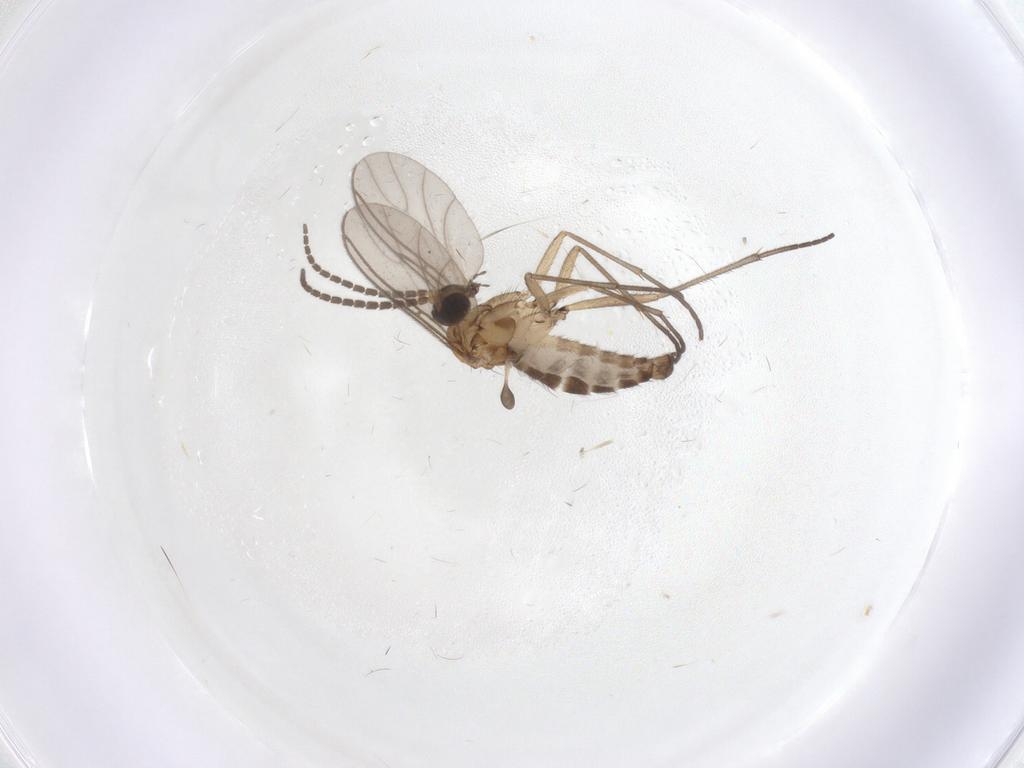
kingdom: Animalia
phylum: Arthropoda
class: Insecta
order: Diptera
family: Sciaridae
